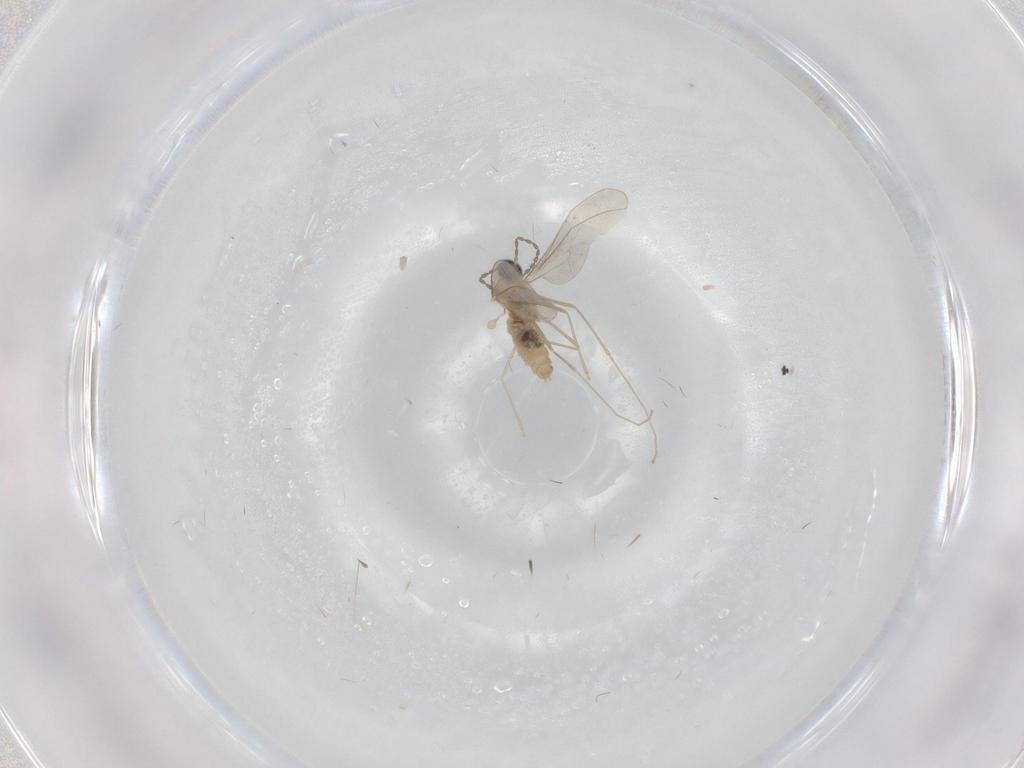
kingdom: Animalia
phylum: Arthropoda
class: Insecta
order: Diptera
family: Cecidomyiidae
